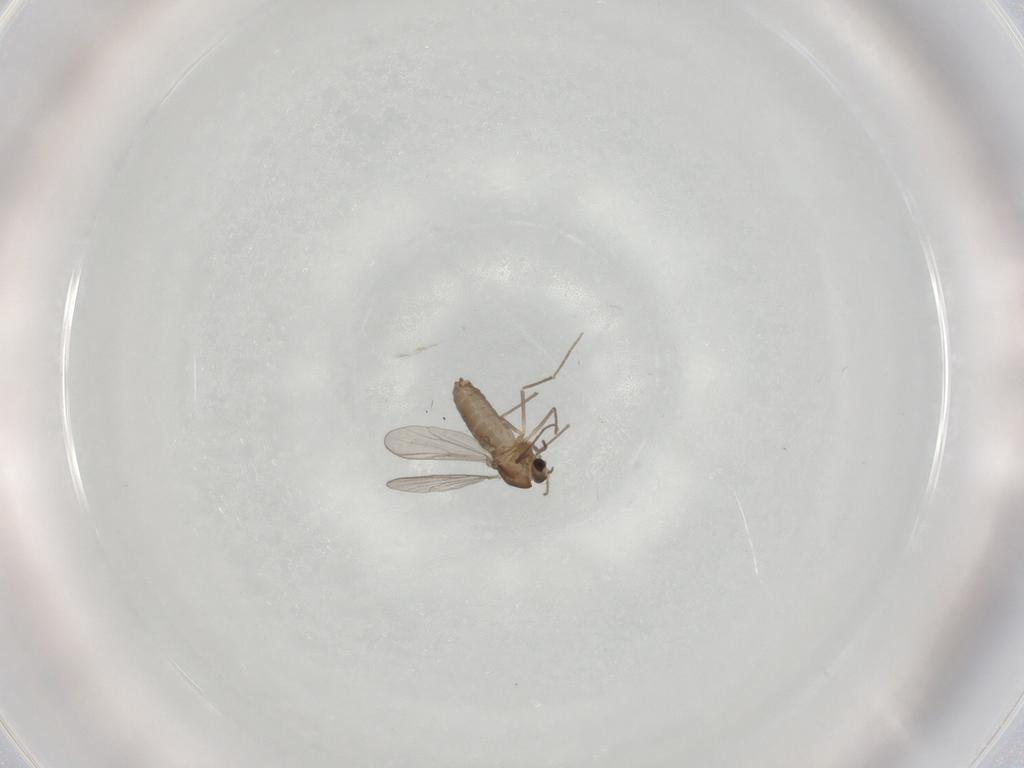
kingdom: Animalia
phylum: Arthropoda
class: Insecta
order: Diptera
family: Chironomidae
